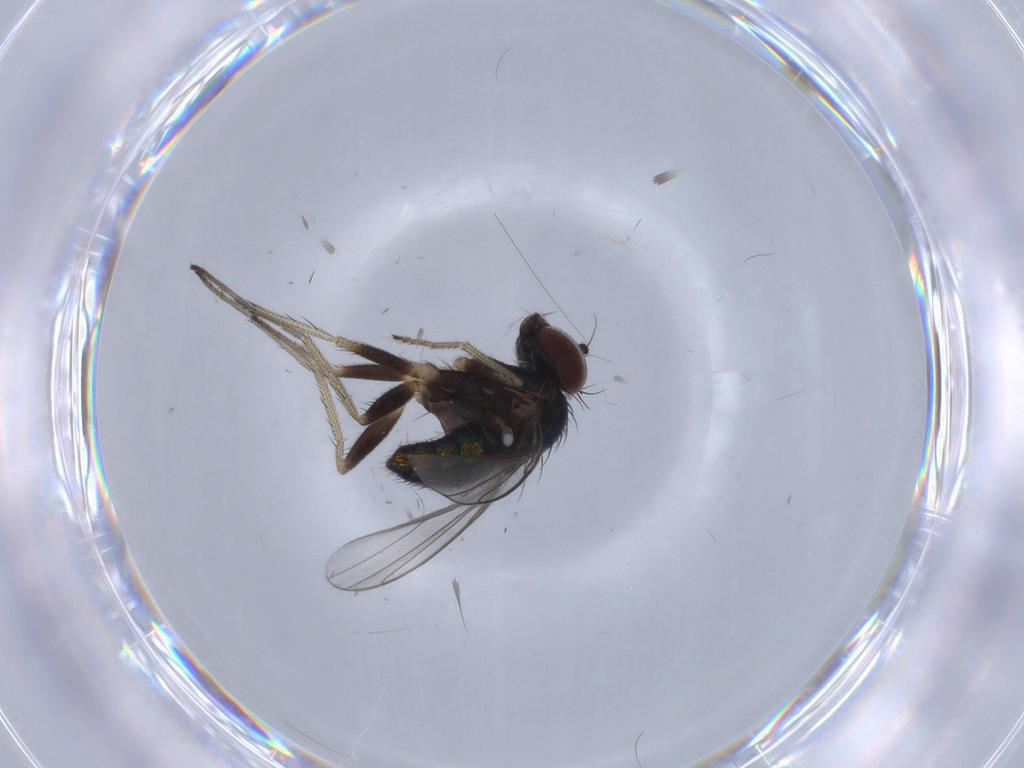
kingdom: Animalia
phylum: Arthropoda
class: Insecta
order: Diptera
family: Dolichopodidae
